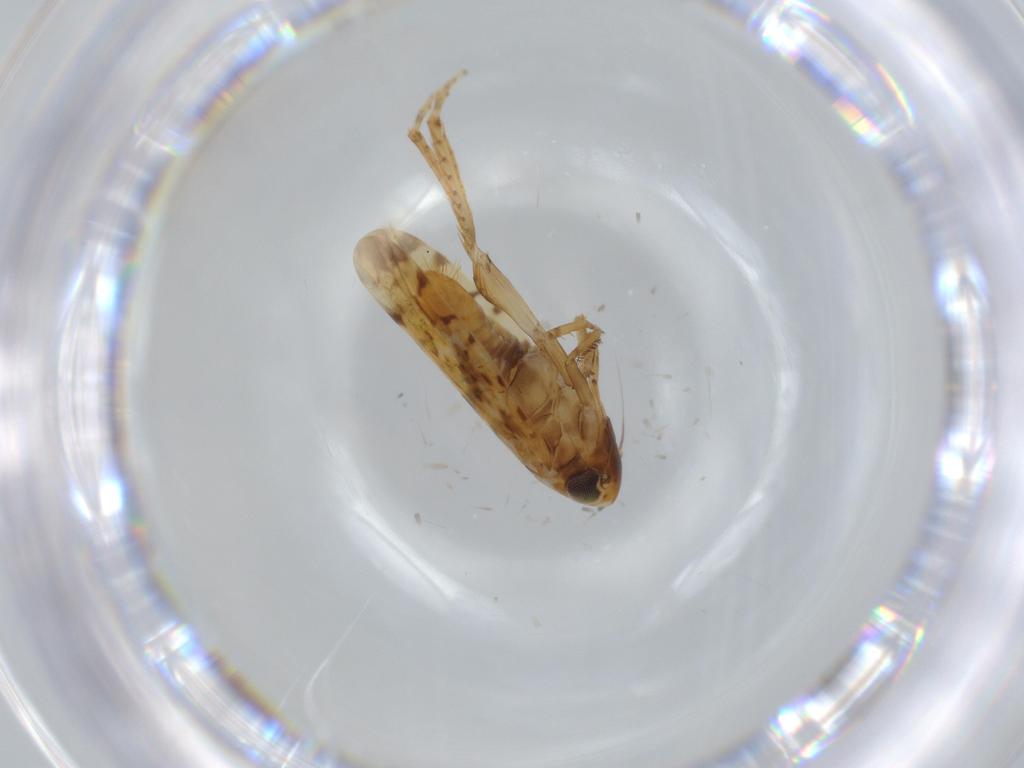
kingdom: Animalia
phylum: Arthropoda
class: Insecta
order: Hemiptera
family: Cicadellidae
